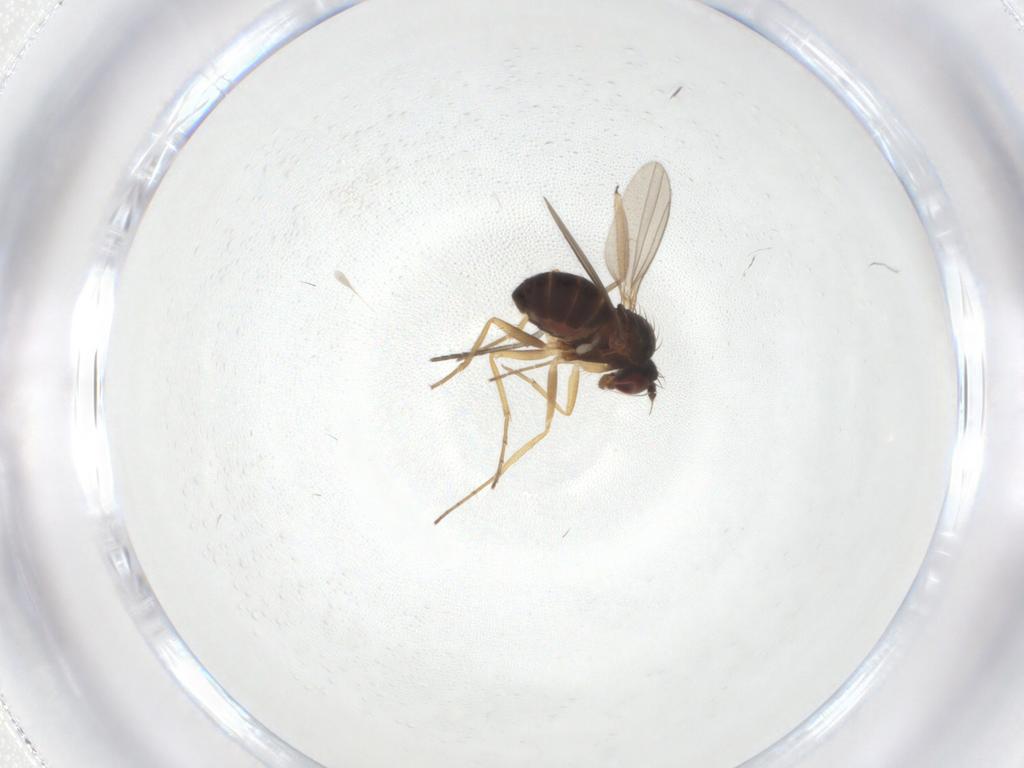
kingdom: Animalia
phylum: Arthropoda
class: Insecta
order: Diptera
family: Dolichopodidae
